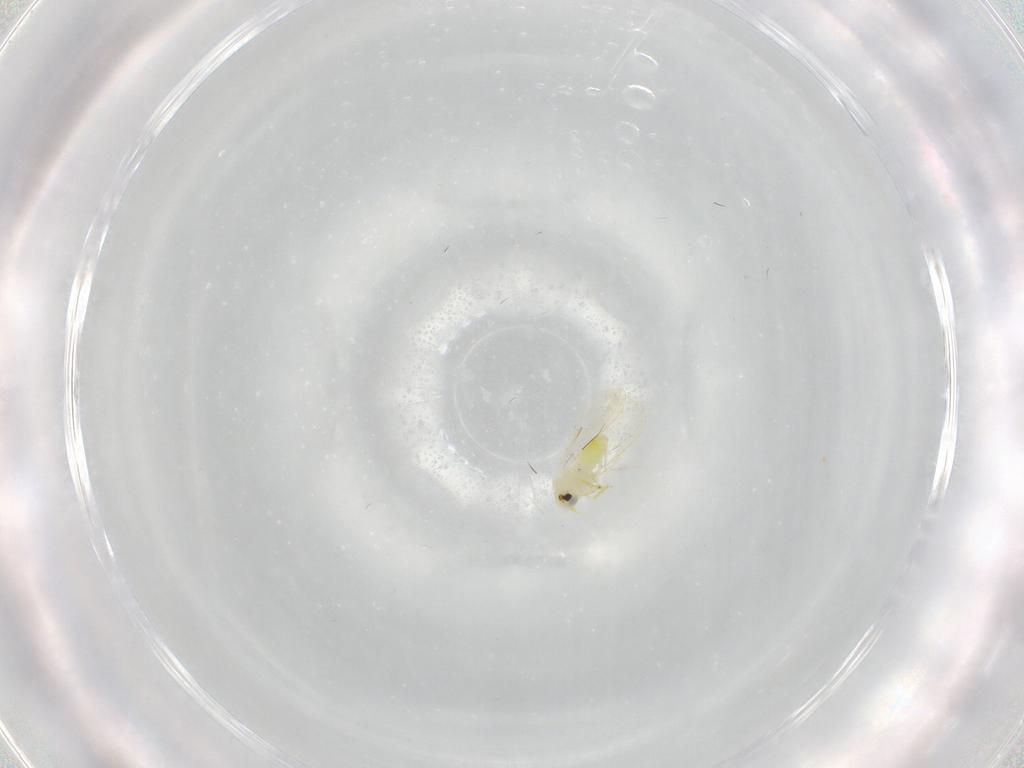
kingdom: Animalia
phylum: Arthropoda
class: Insecta
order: Hemiptera
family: Aleyrodidae
